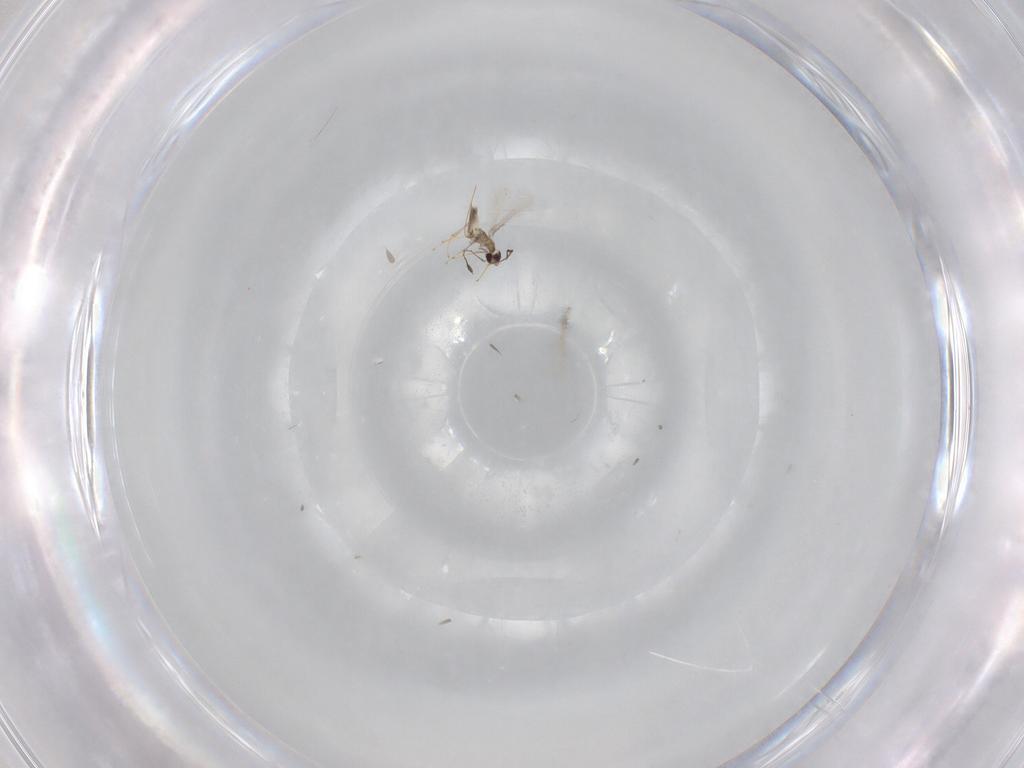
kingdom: Animalia
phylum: Arthropoda
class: Insecta
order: Hymenoptera
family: Mymaridae
